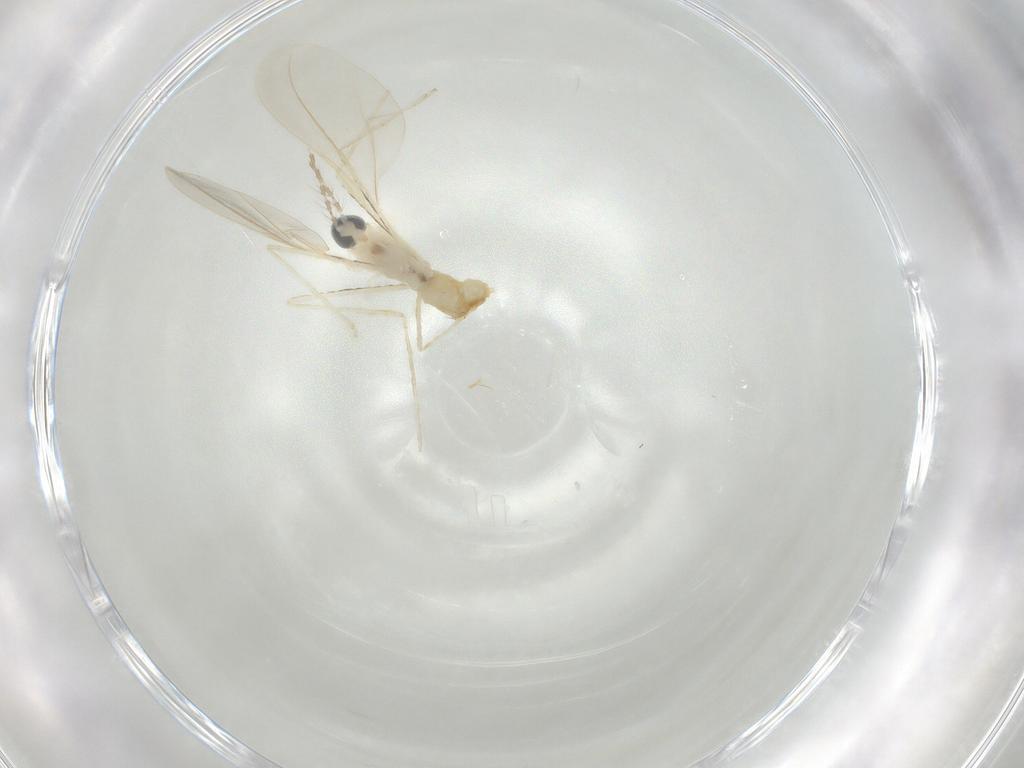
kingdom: Animalia
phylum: Arthropoda
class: Insecta
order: Diptera
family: Cecidomyiidae
